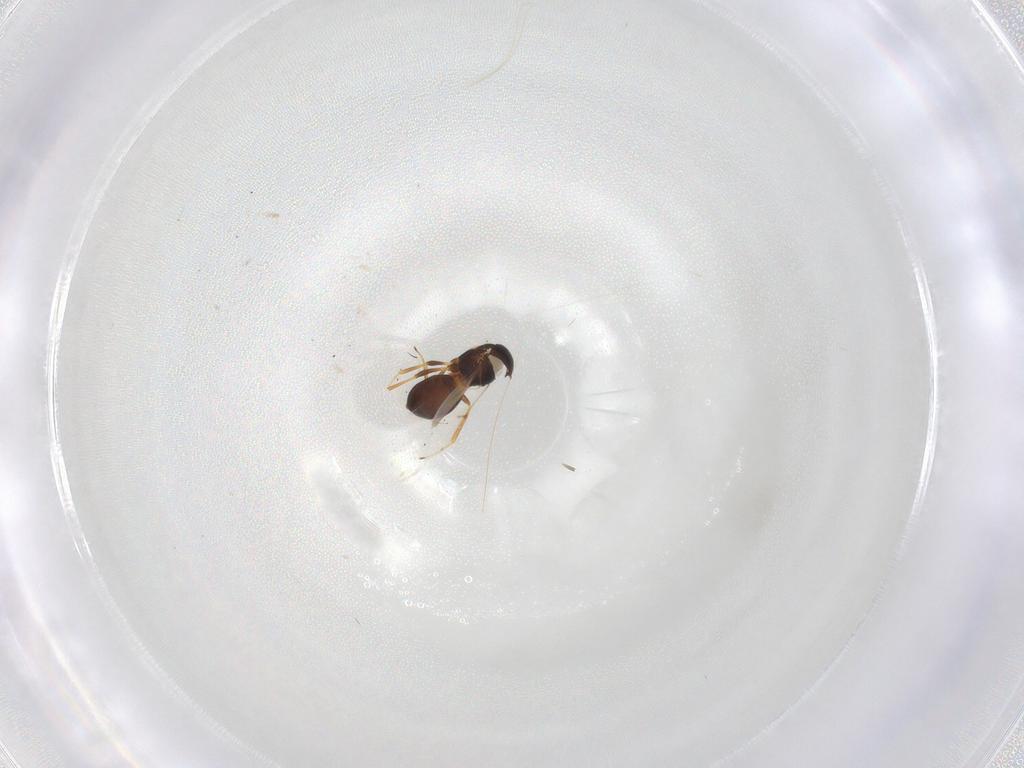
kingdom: Animalia
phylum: Arthropoda
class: Arachnida
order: Araneae
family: Pholcidae
